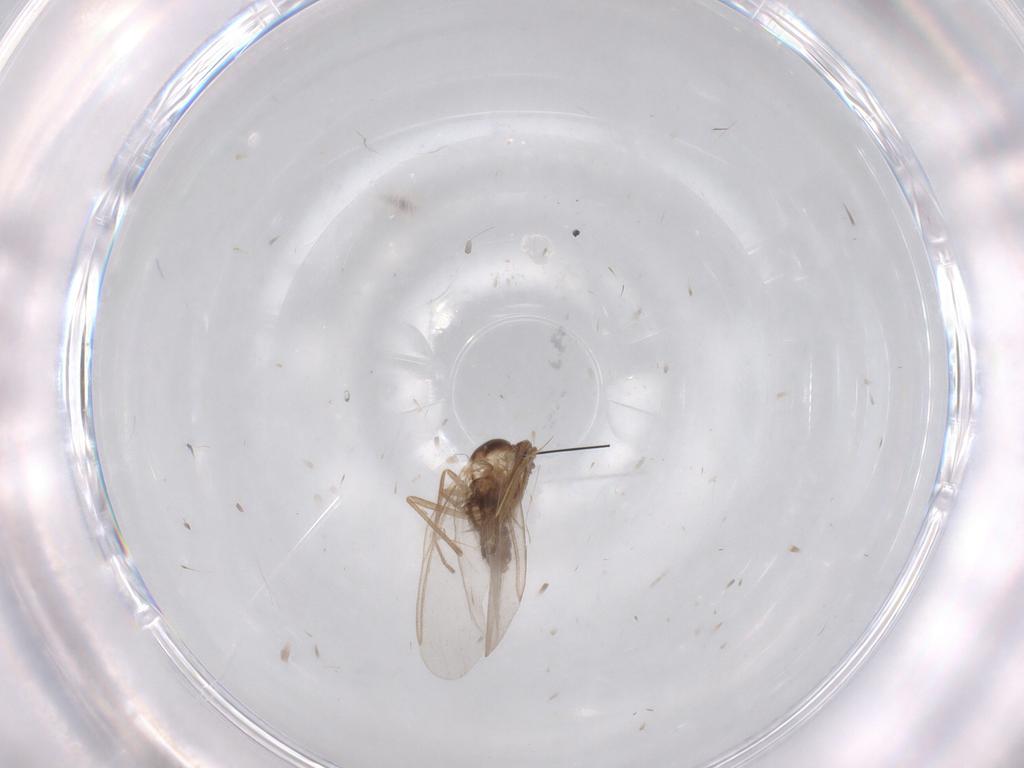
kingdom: Animalia
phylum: Arthropoda
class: Insecta
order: Diptera
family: Cecidomyiidae
